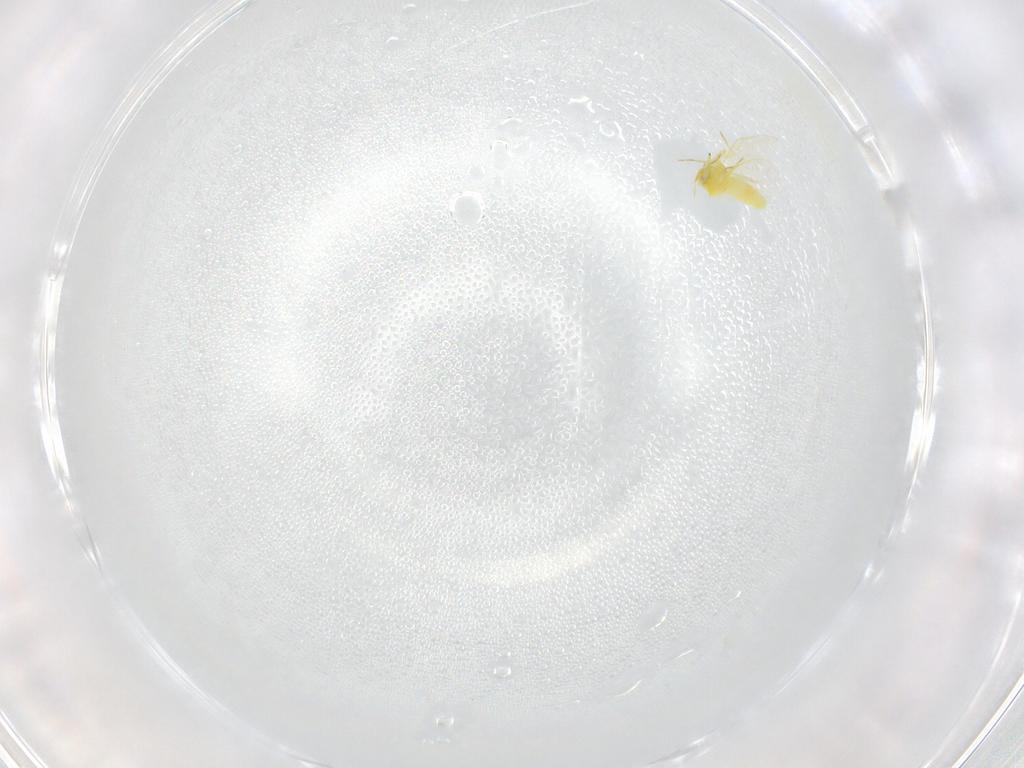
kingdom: Animalia
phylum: Arthropoda
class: Insecta
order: Hemiptera
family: Aleyrodidae
